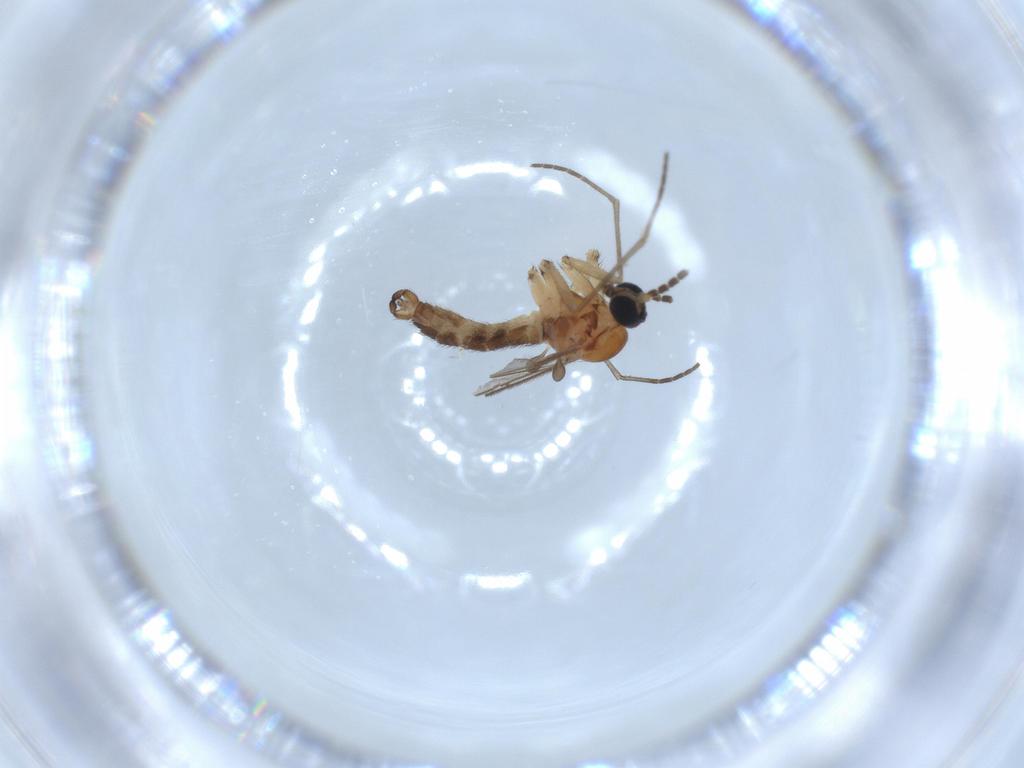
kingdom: Animalia
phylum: Arthropoda
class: Insecta
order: Diptera
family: Sciaridae
